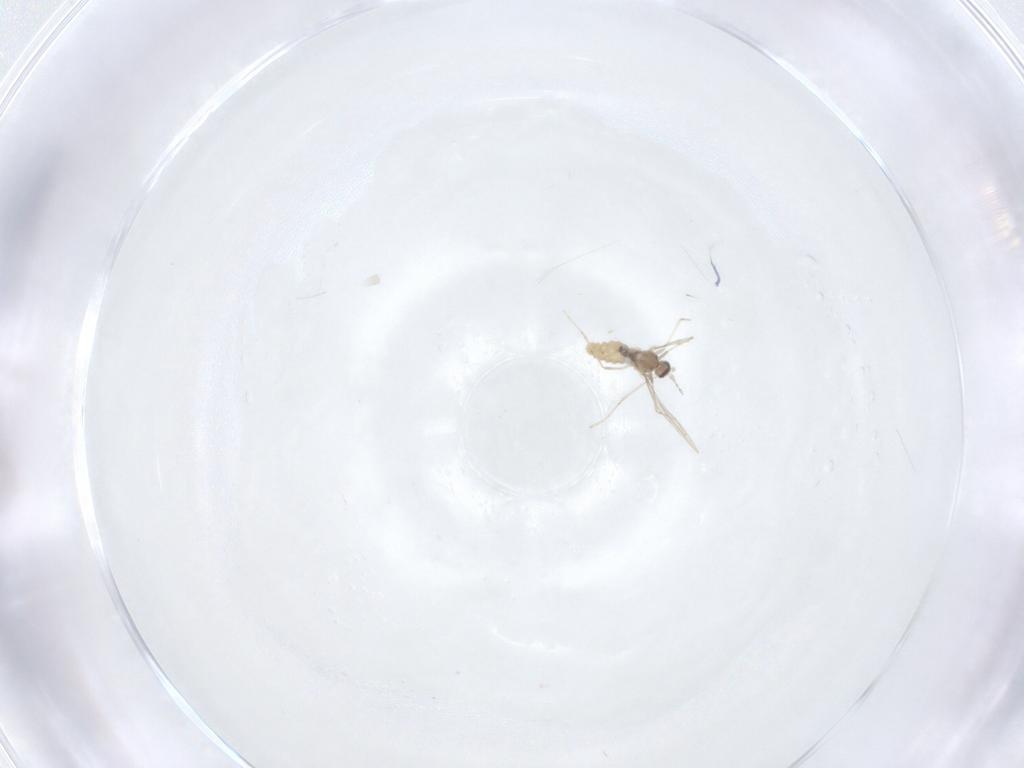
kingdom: Animalia
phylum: Arthropoda
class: Insecta
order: Diptera
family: Cecidomyiidae
